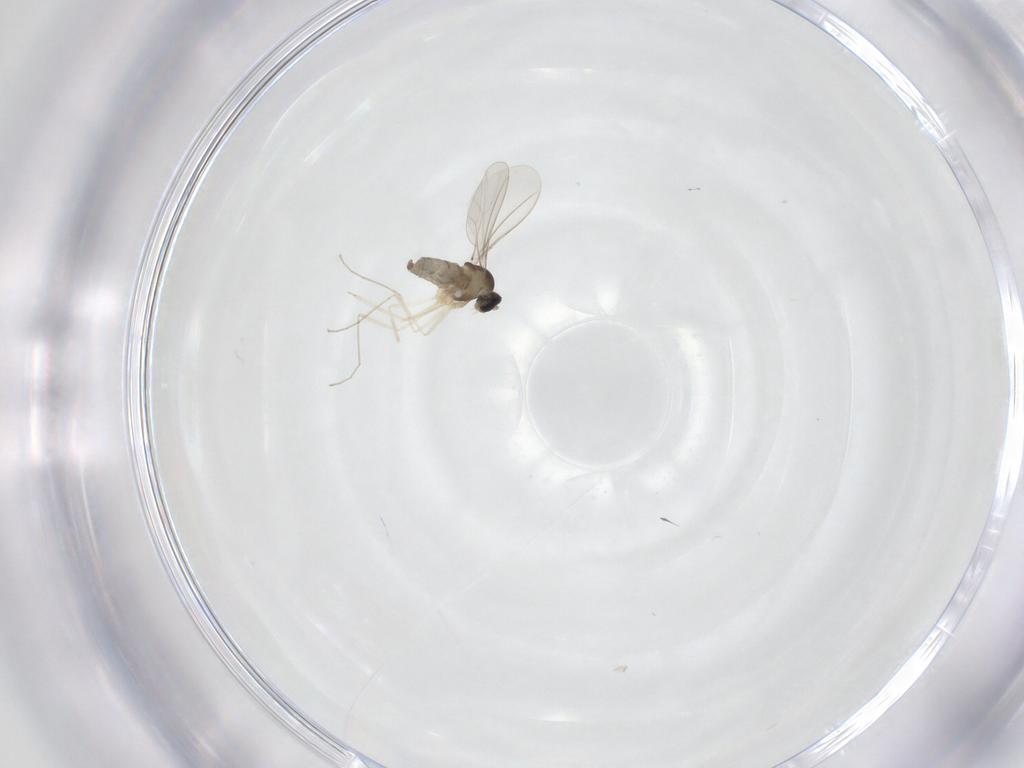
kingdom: Animalia
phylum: Arthropoda
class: Insecta
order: Diptera
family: Cecidomyiidae
